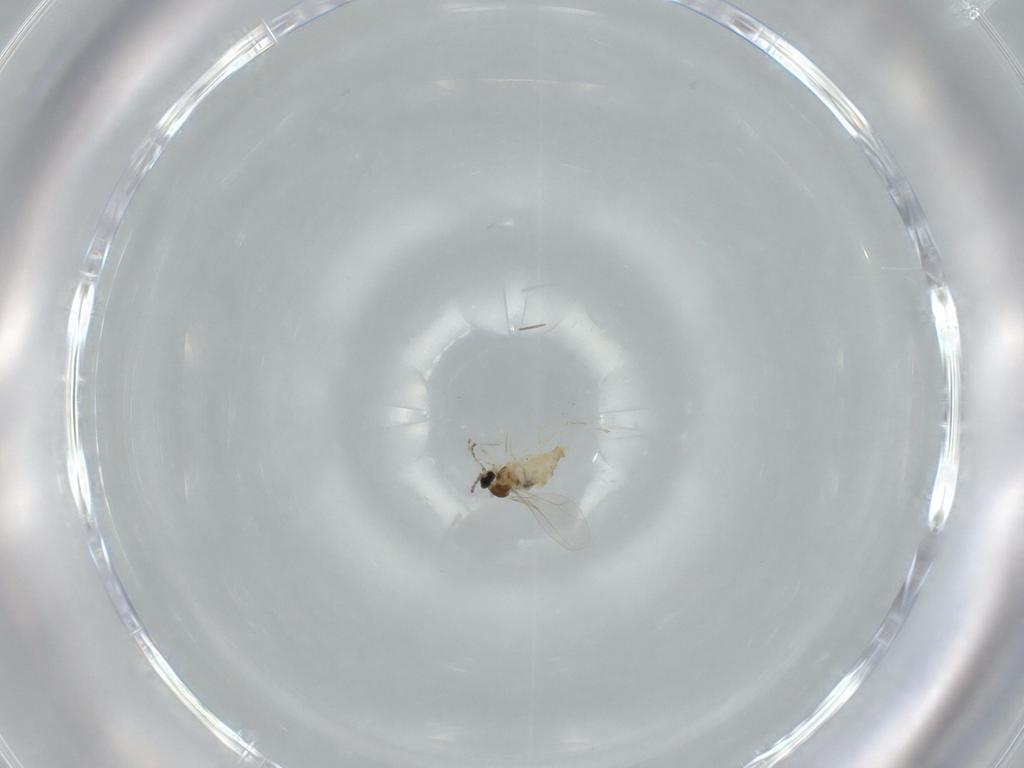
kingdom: Animalia
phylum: Arthropoda
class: Insecta
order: Diptera
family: Cecidomyiidae
